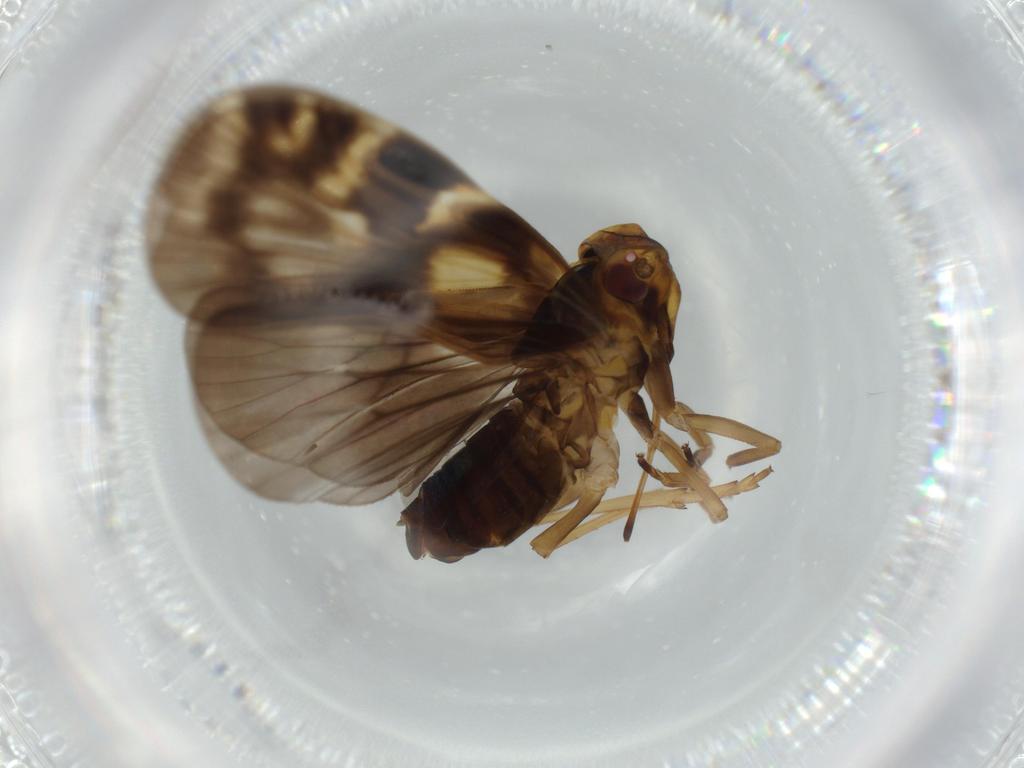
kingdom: Animalia
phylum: Arthropoda
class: Insecta
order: Hemiptera
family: Cixiidae
